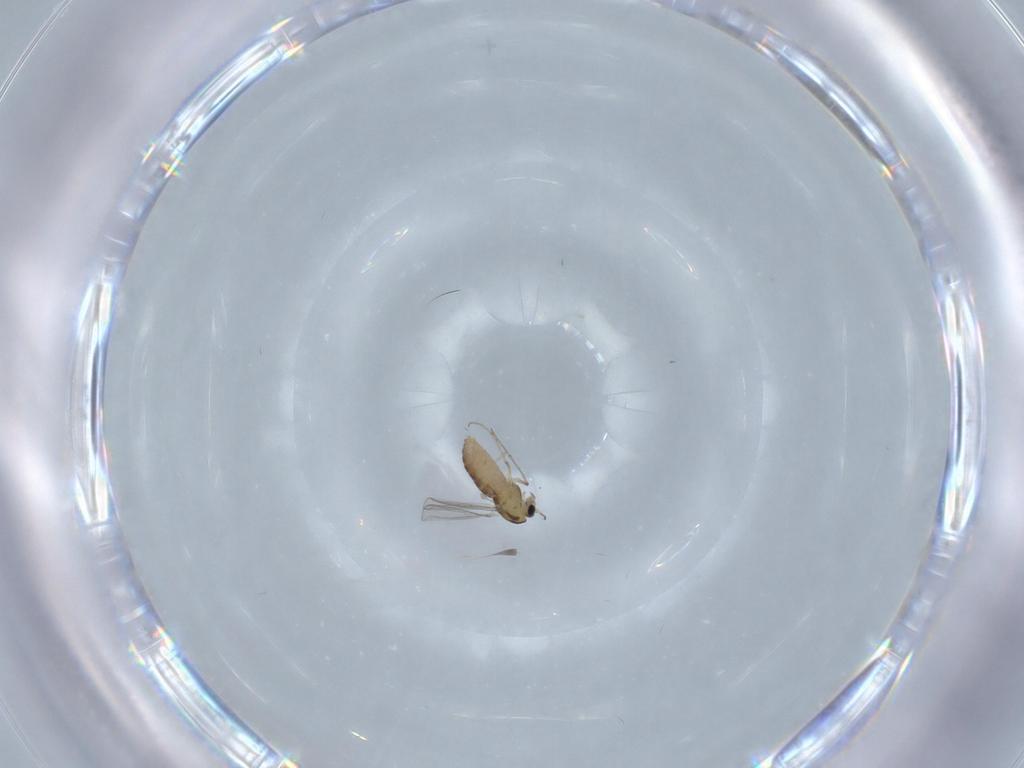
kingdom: Animalia
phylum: Arthropoda
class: Insecta
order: Diptera
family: Chironomidae
